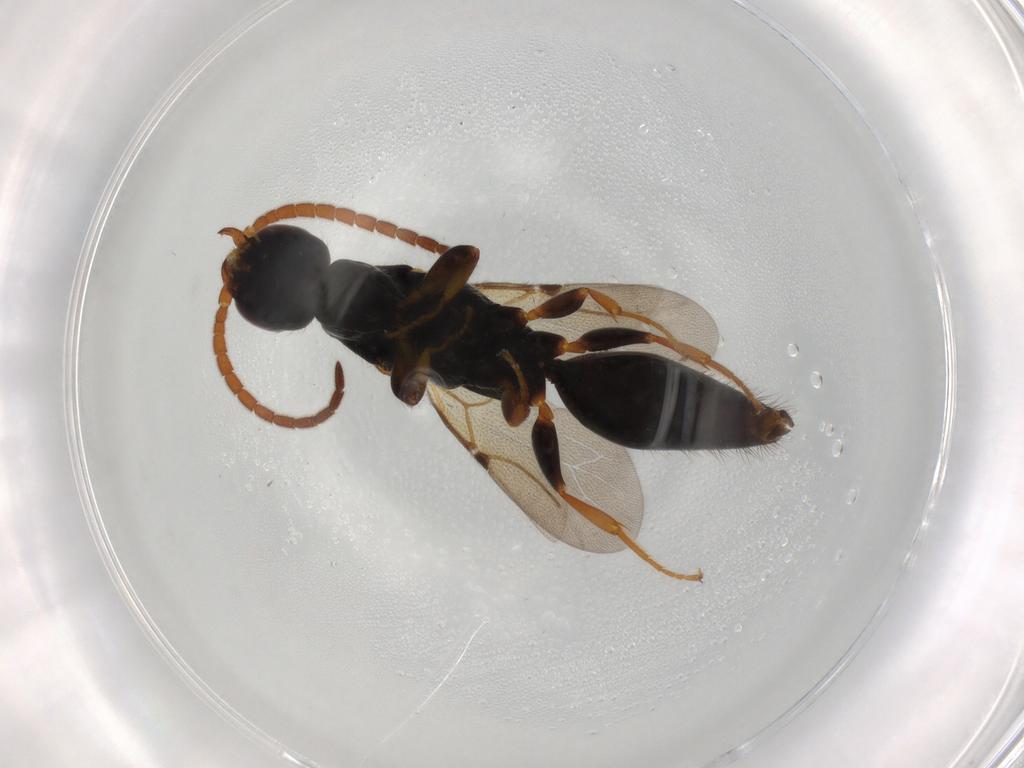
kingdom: Animalia
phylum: Arthropoda
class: Insecta
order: Hymenoptera
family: Bethylidae
